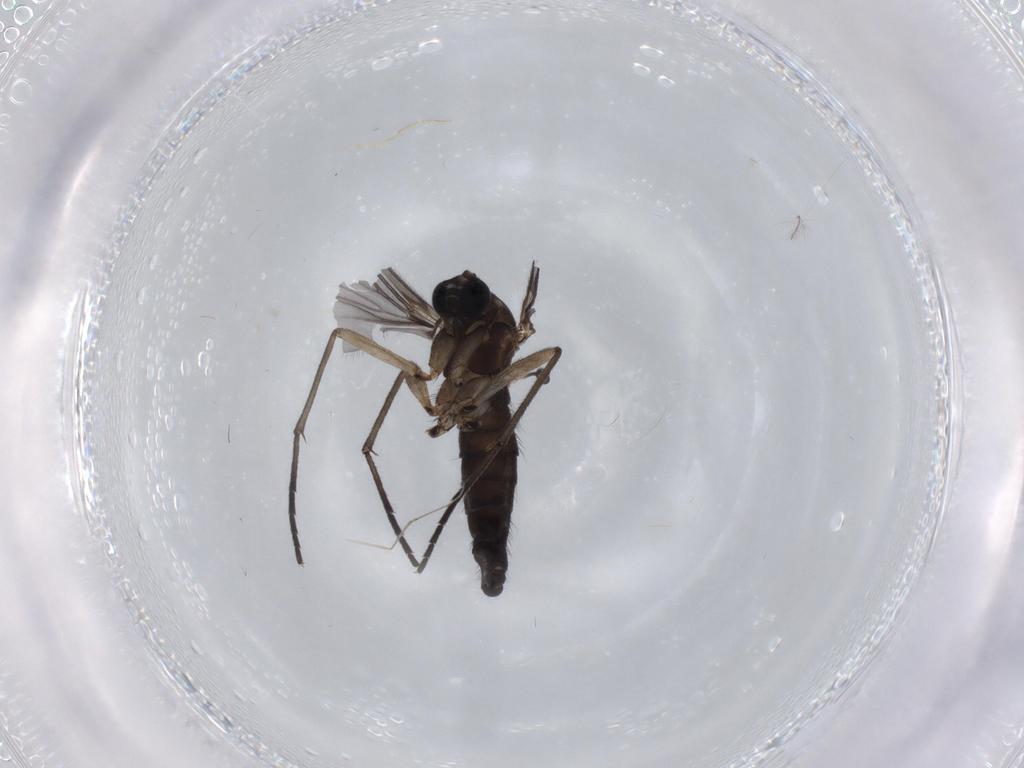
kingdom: Animalia
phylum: Arthropoda
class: Insecta
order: Diptera
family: Sciaridae
